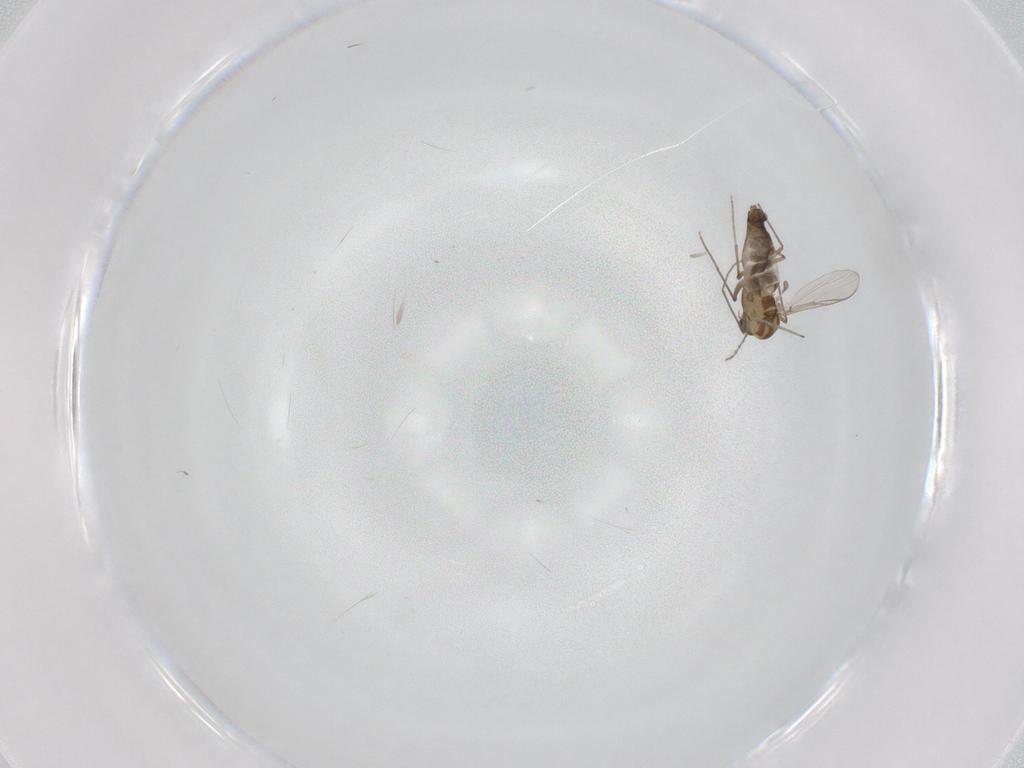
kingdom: Animalia
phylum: Arthropoda
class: Insecta
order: Diptera
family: Chironomidae
